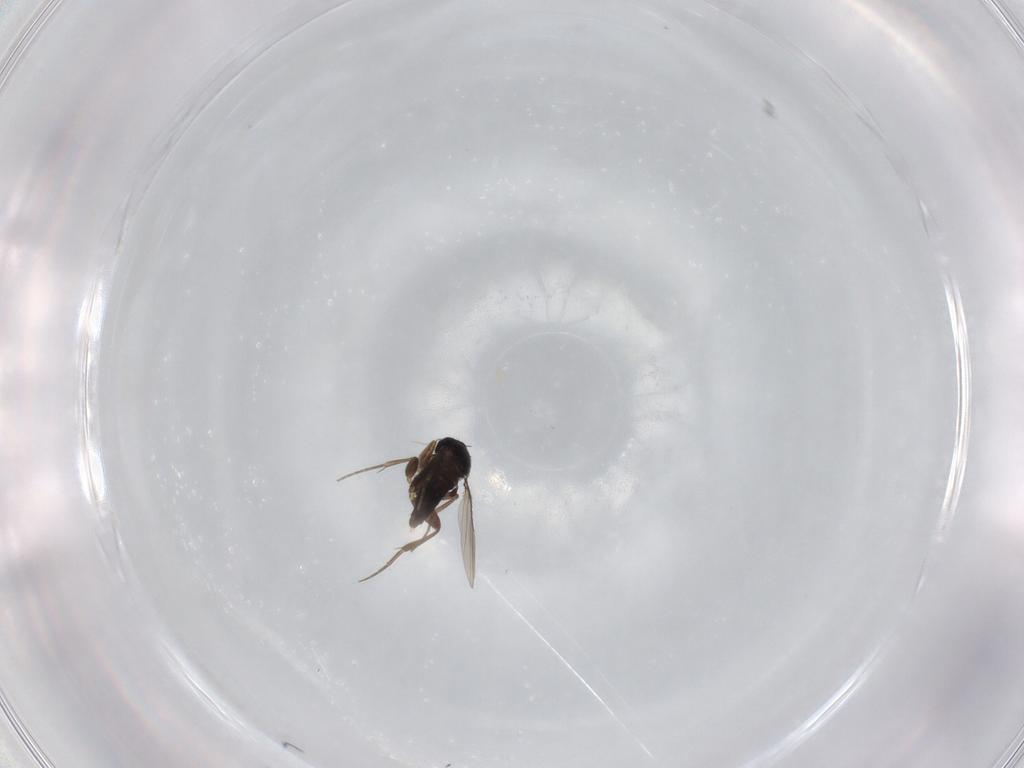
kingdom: Animalia
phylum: Arthropoda
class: Insecta
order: Diptera
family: Phoridae
